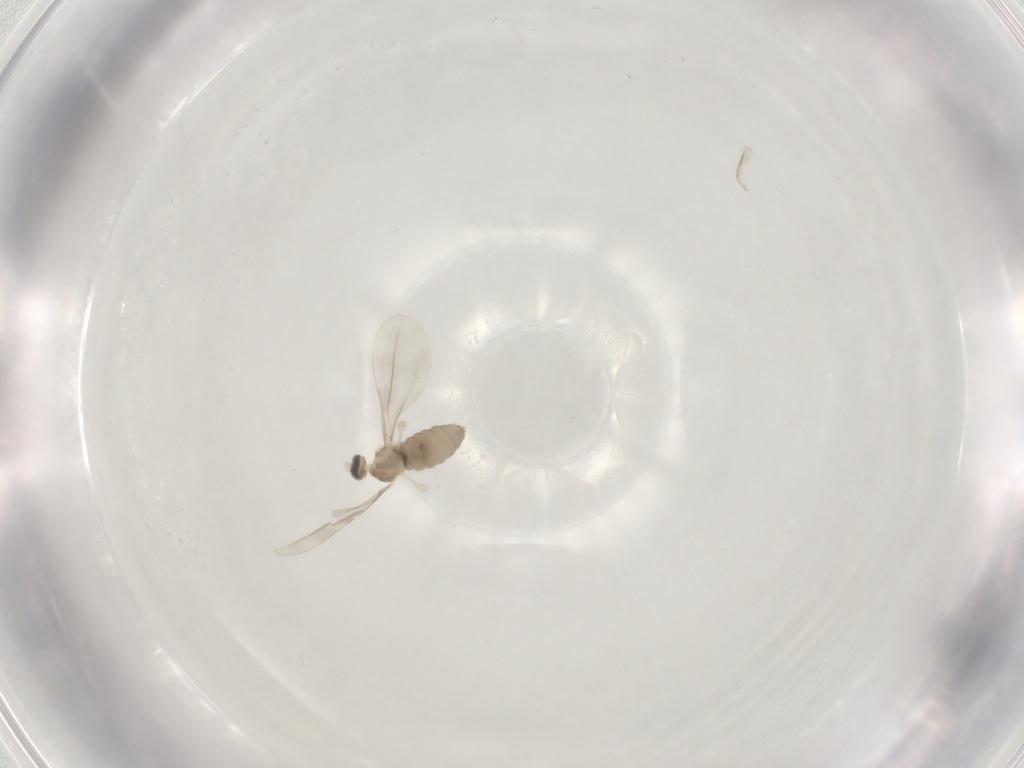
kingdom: Animalia
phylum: Arthropoda
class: Insecta
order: Diptera
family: Cecidomyiidae
